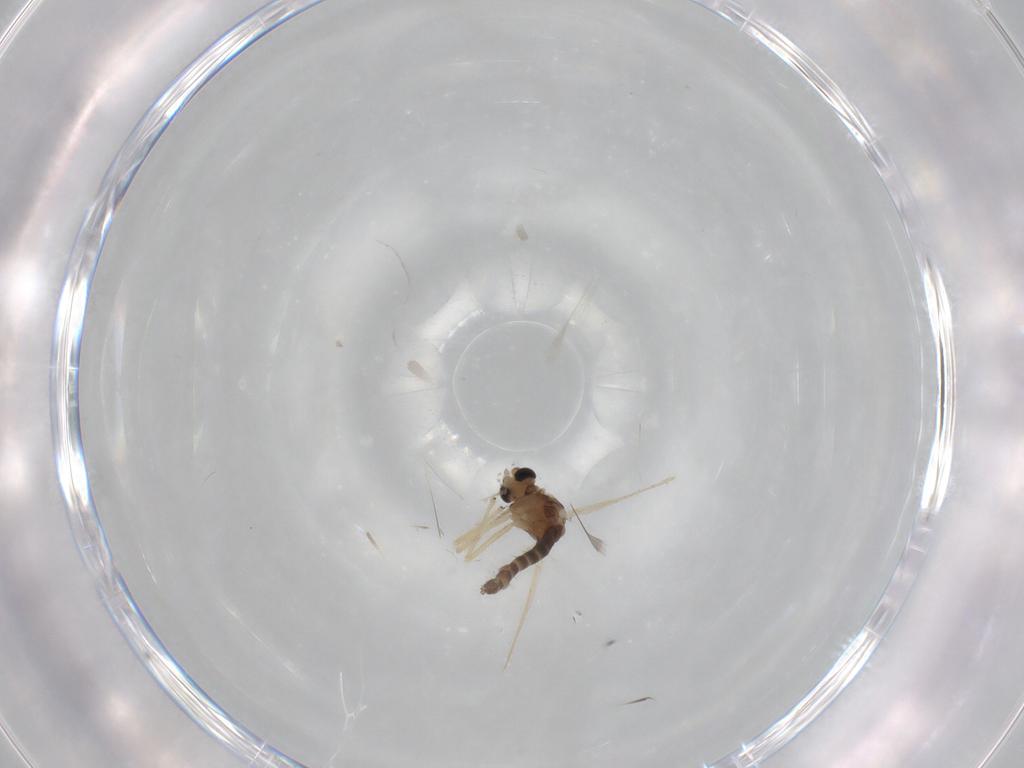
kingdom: Animalia
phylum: Arthropoda
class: Insecta
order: Diptera
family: Chironomidae
